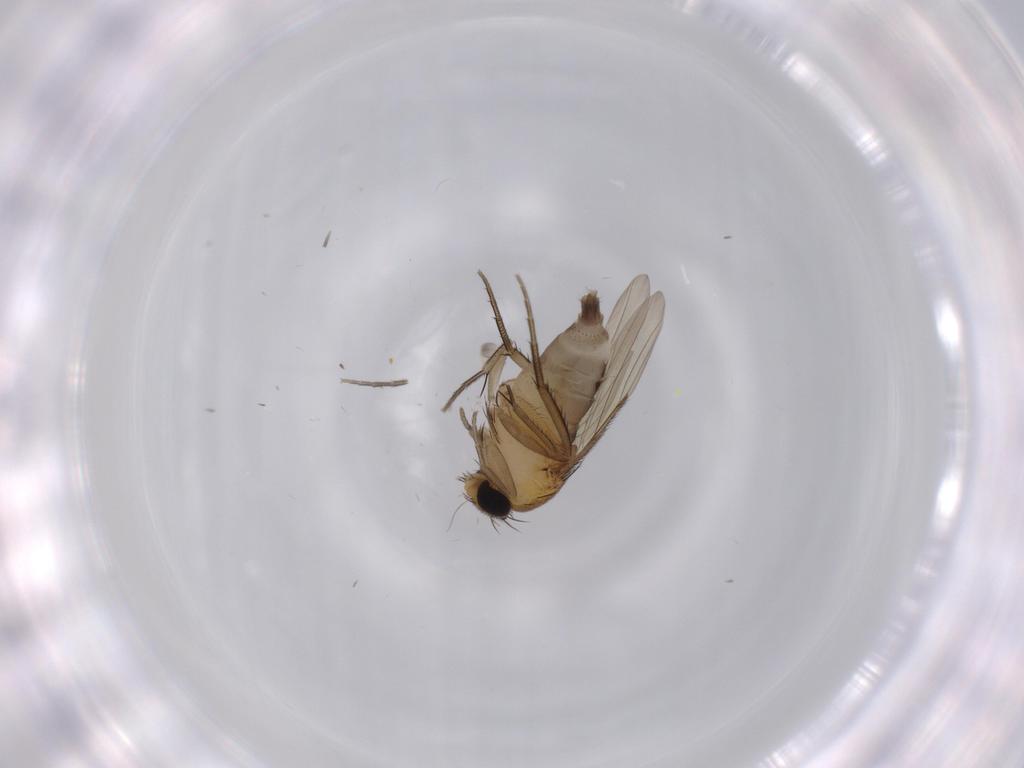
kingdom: Animalia
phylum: Arthropoda
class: Insecta
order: Diptera
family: Phoridae
